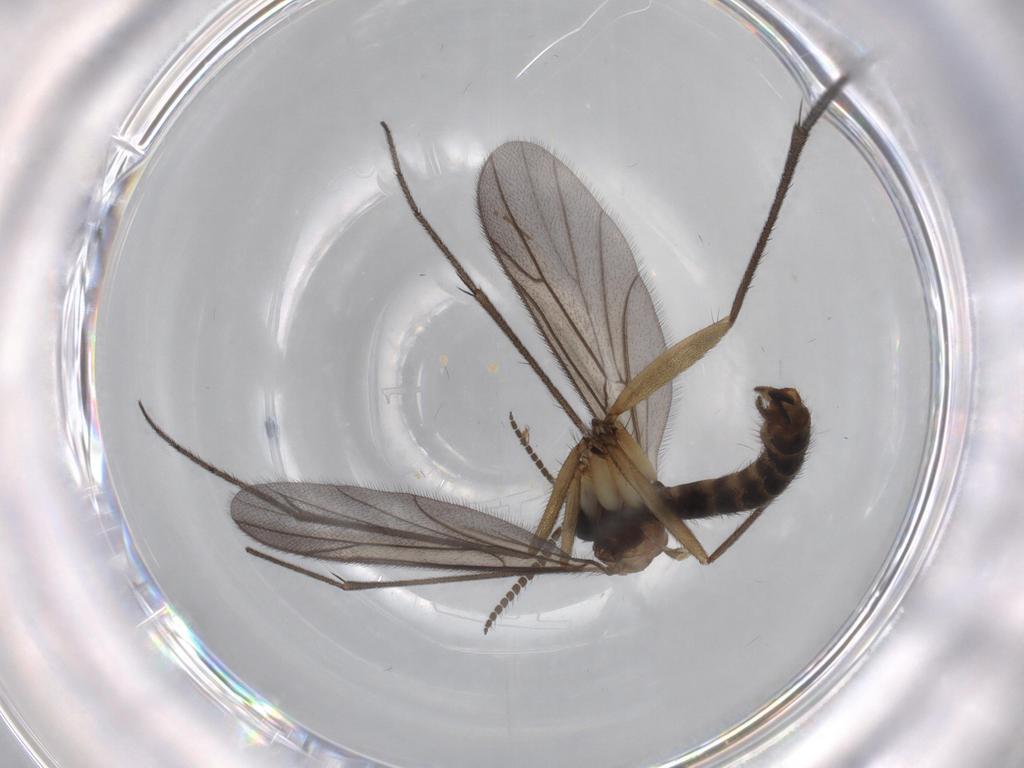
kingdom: Animalia
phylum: Arthropoda
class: Insecta
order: Diptera
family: Chironomidae
